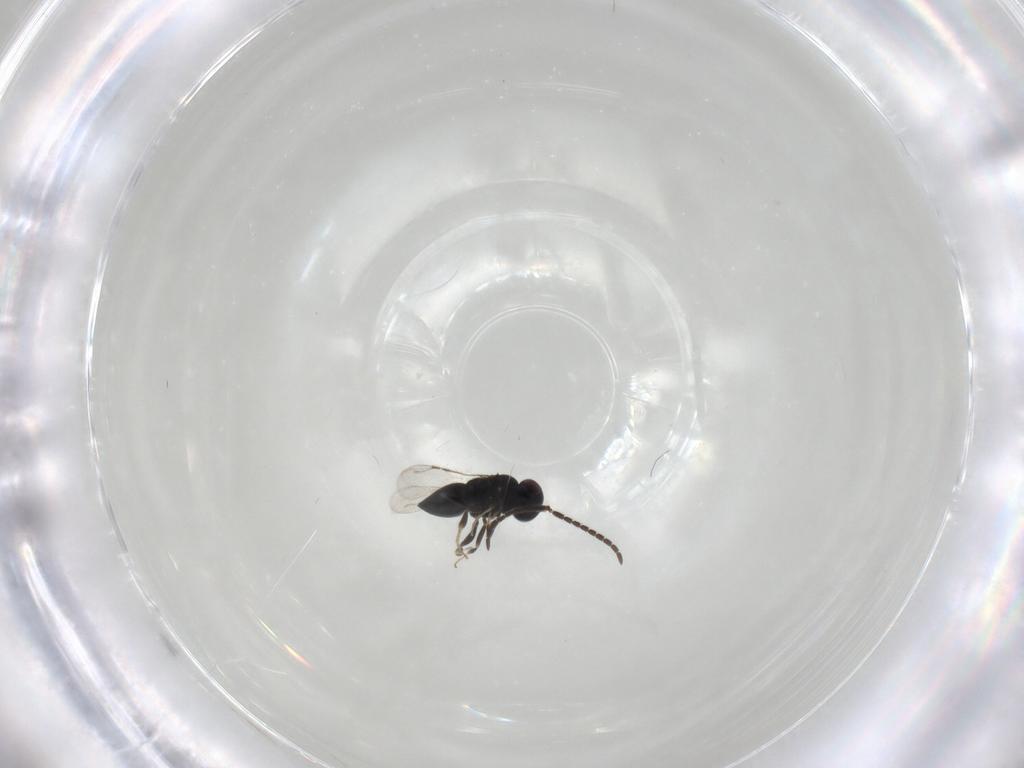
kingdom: Animalia
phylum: Arthropoda
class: Insecta
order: Hymenoptera
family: Ceraphronidae
